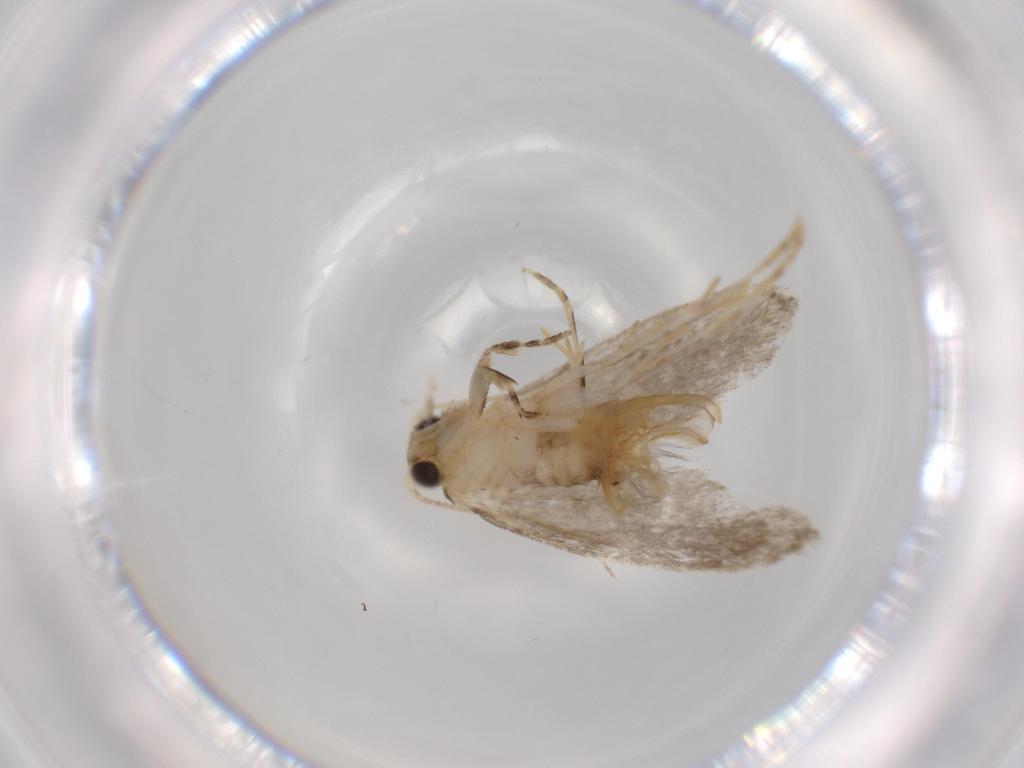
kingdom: Animalia
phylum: Arthropoda
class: Insecta
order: Lepidoptera
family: Tineidae
